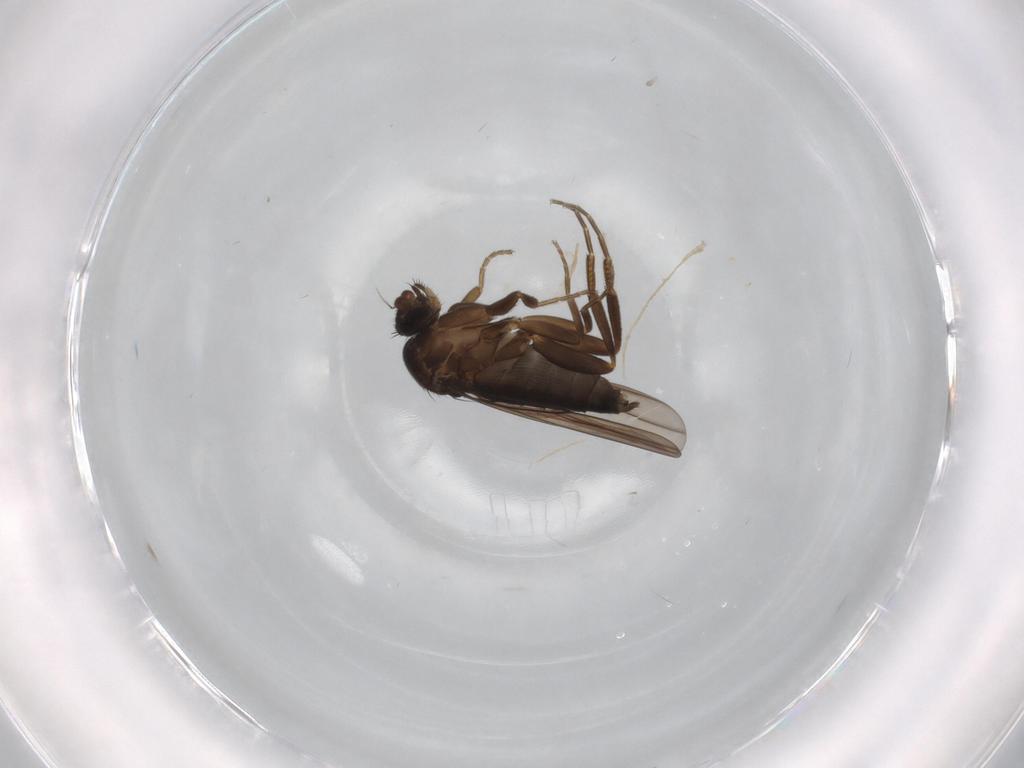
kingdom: Animalia
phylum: Arthropoda
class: Insecta
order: Diptera
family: Phoridae
